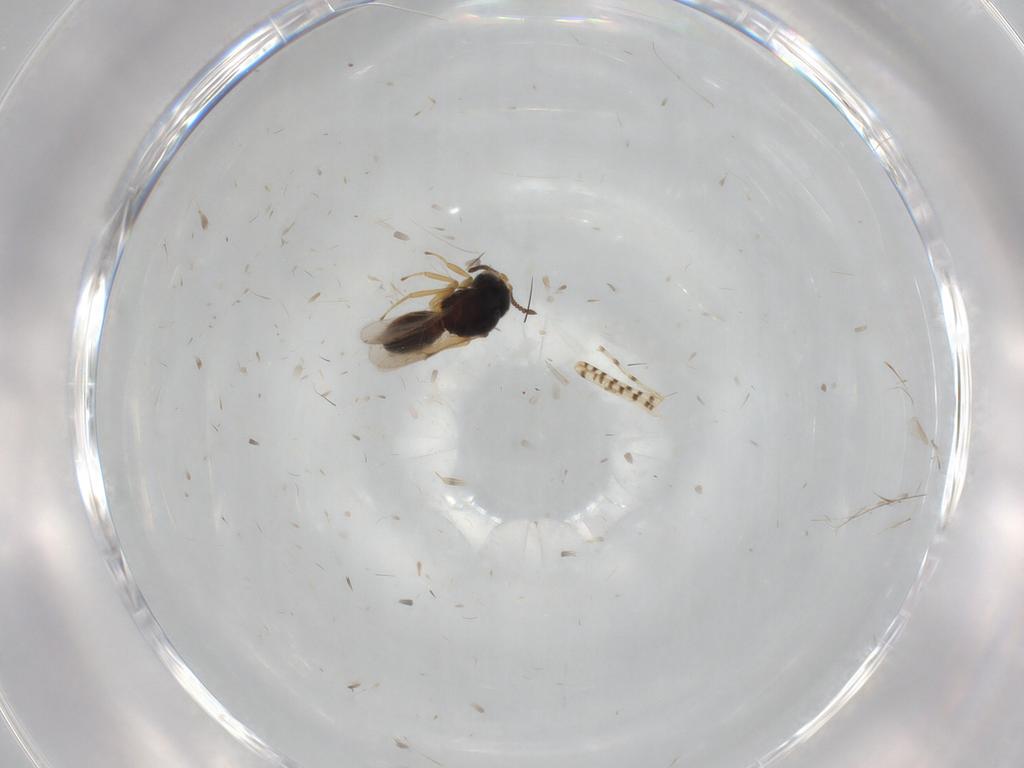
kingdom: Animalia
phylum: Arthropoda
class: Insecta
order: Hymenoptera
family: Scelionidae
